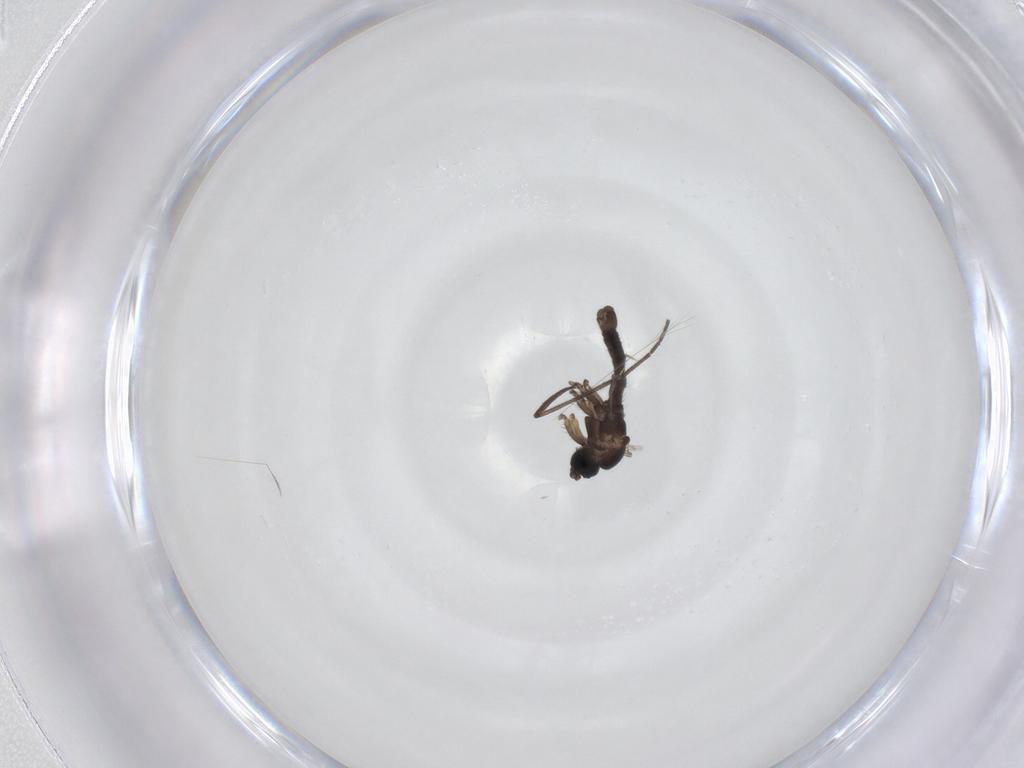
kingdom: Animalia
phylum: Arthropoda
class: Insecta
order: Diptera
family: Sciaridae
